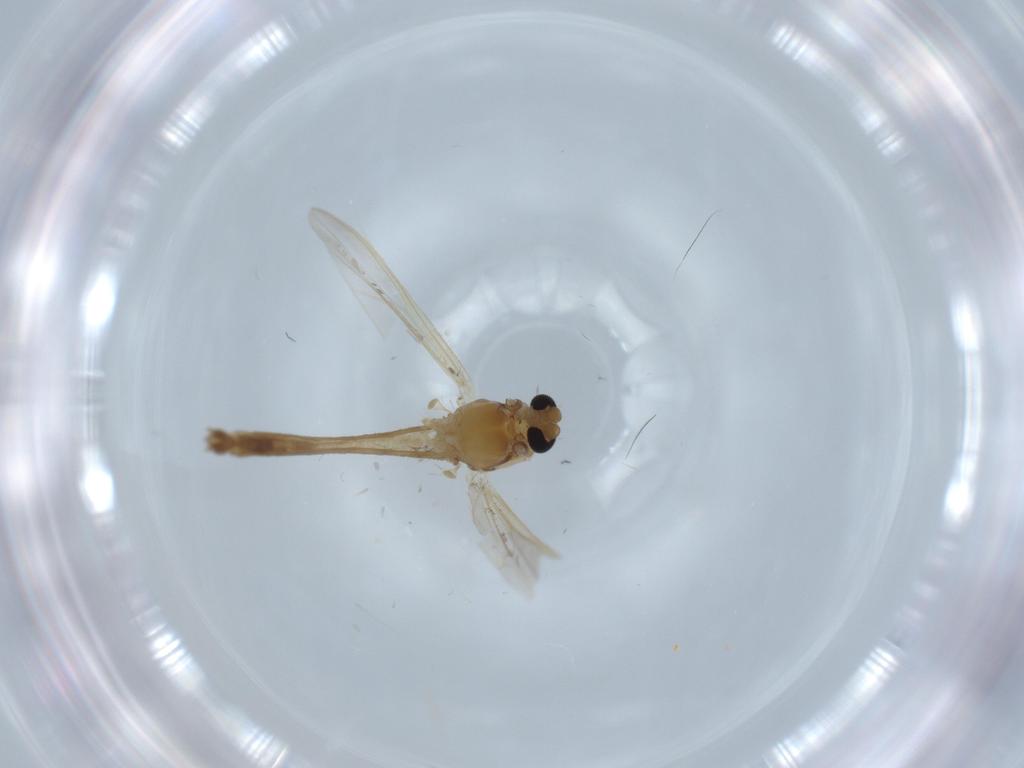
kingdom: Animalia
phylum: Arthropoda
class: Insecta
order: Diptera
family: Chironomidae
